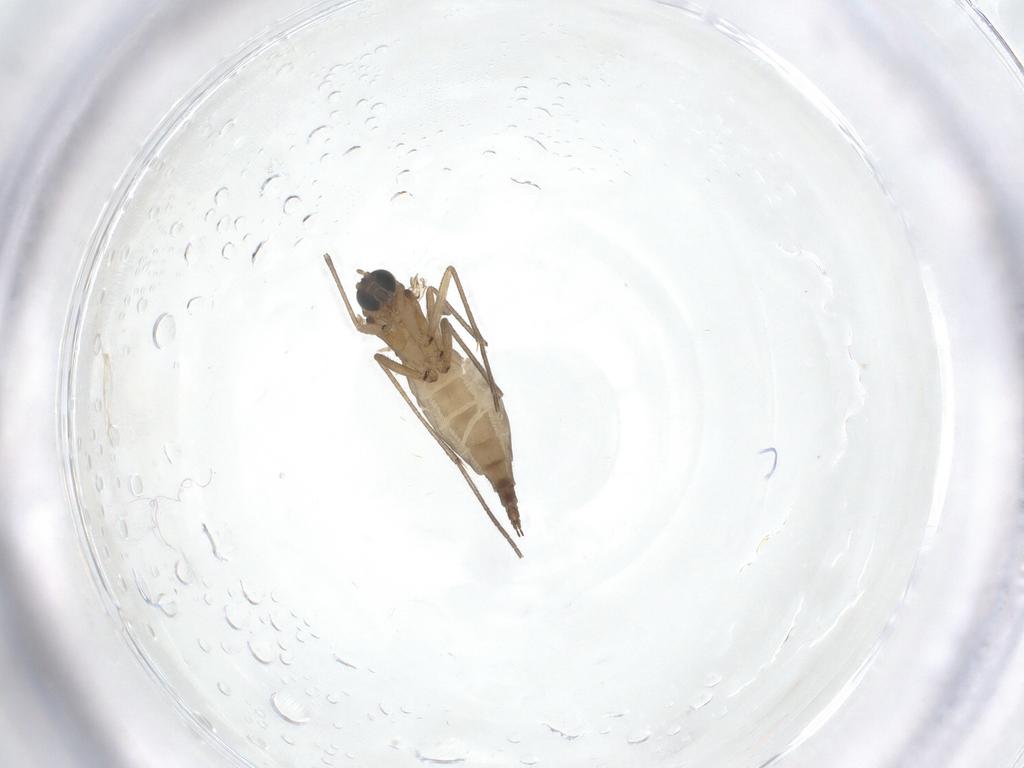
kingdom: Animalia
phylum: Arthropoda
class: Insecta
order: Diptera
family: Sciaridae
